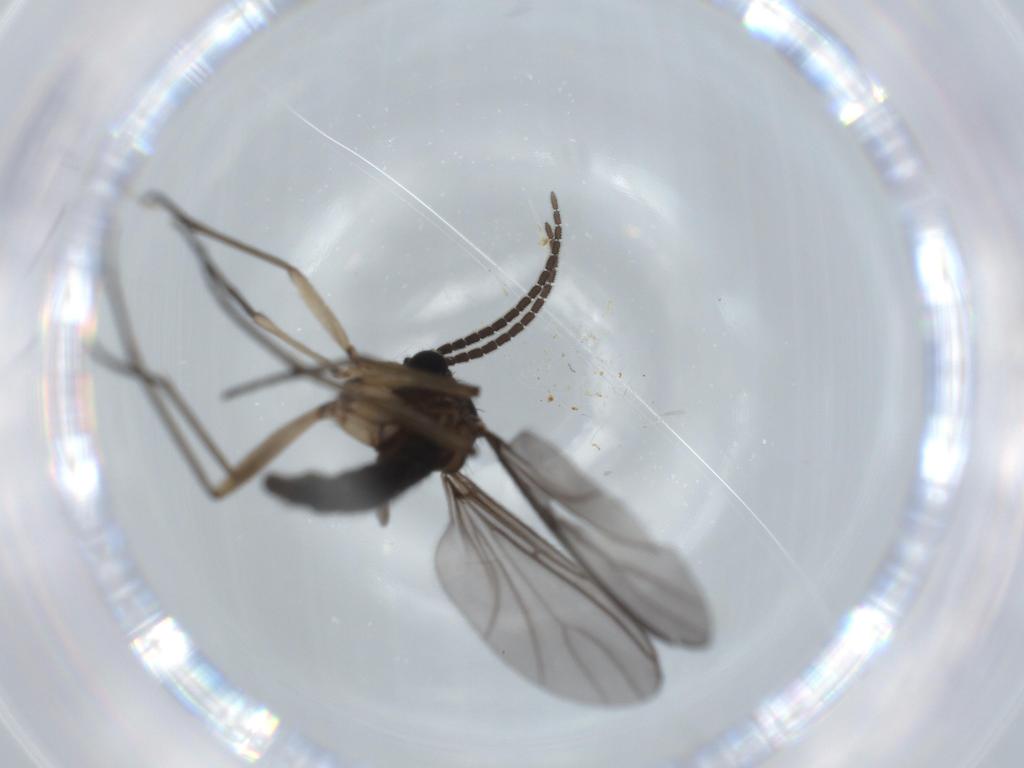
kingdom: Animalia
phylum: Arthropoda
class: Insecta
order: Diptera
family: Sciaridae
